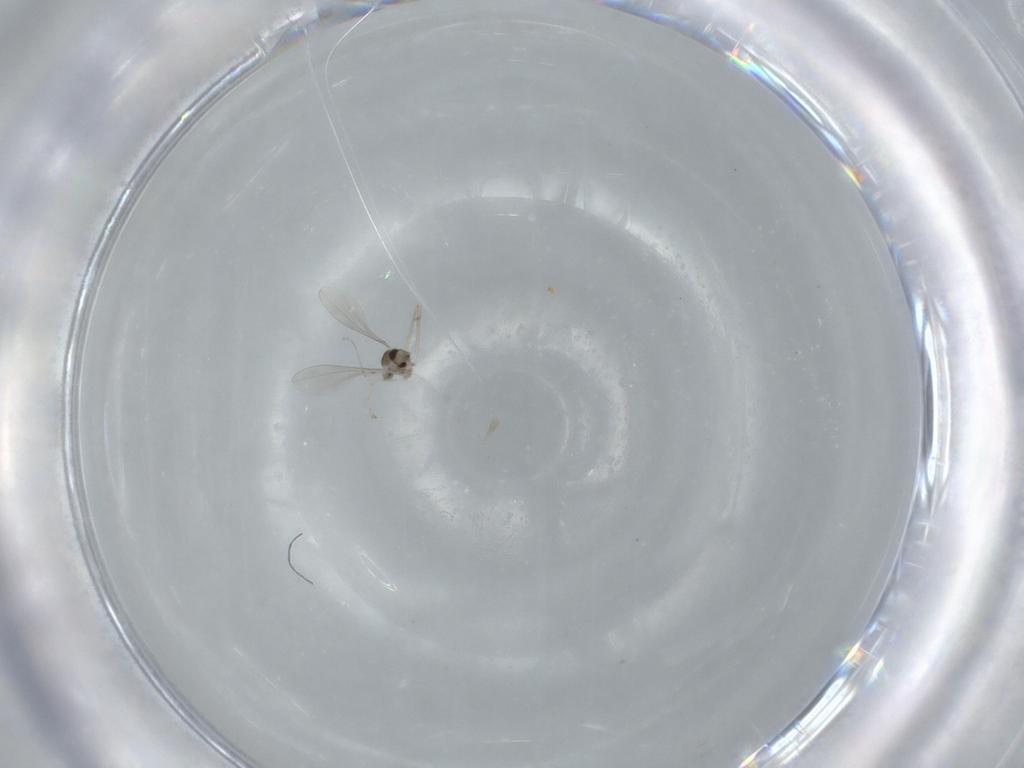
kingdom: Animalia
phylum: Arthropoda
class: Insecta
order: Diptera
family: Cecidomyiidae
